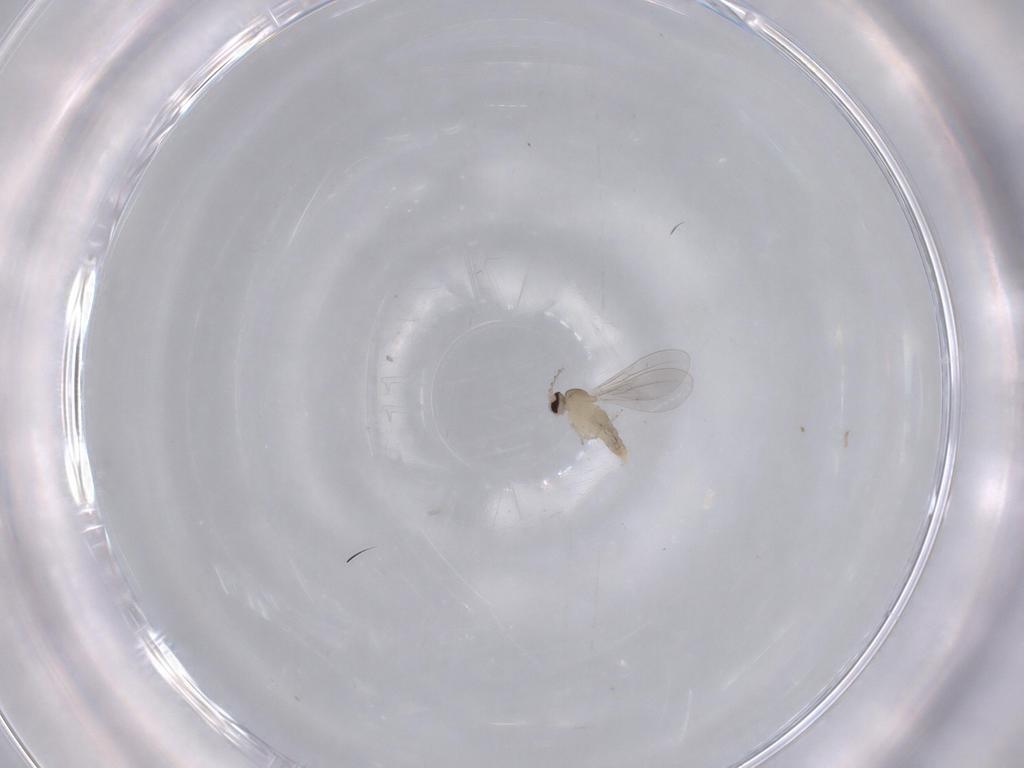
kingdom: Animalia
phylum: Arthropoda
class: Insecta
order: Diptera
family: Cecidomyiidae
